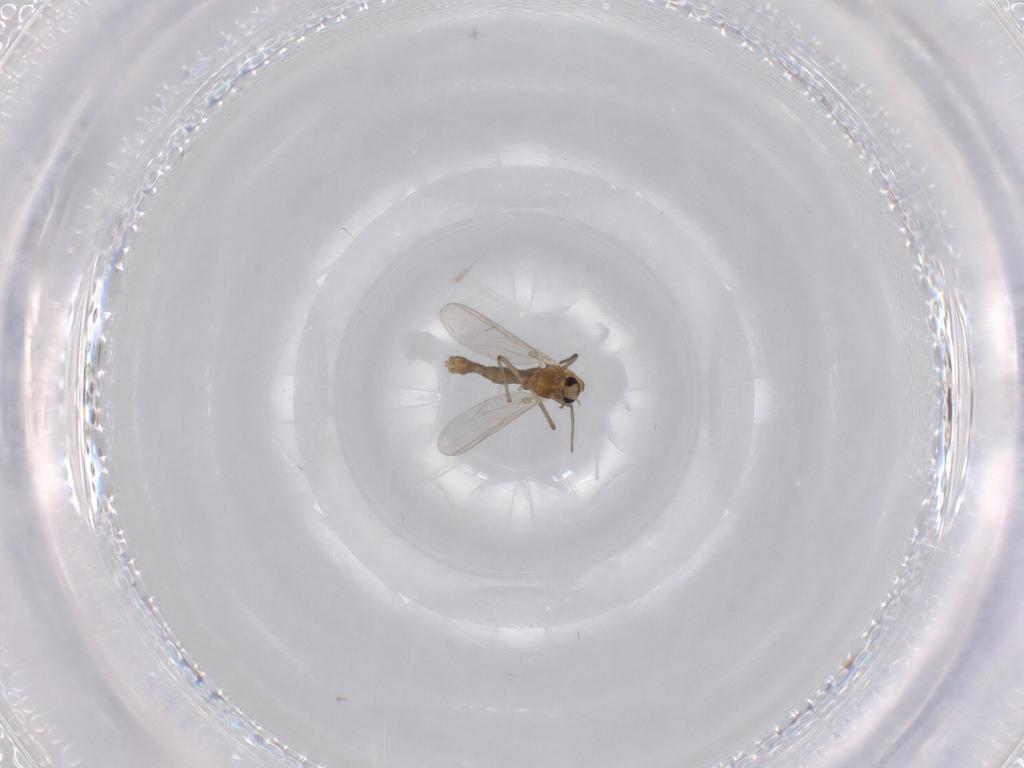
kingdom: Animalia
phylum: Arthropoda
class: Insecta
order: Diptera
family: Chironomidae
